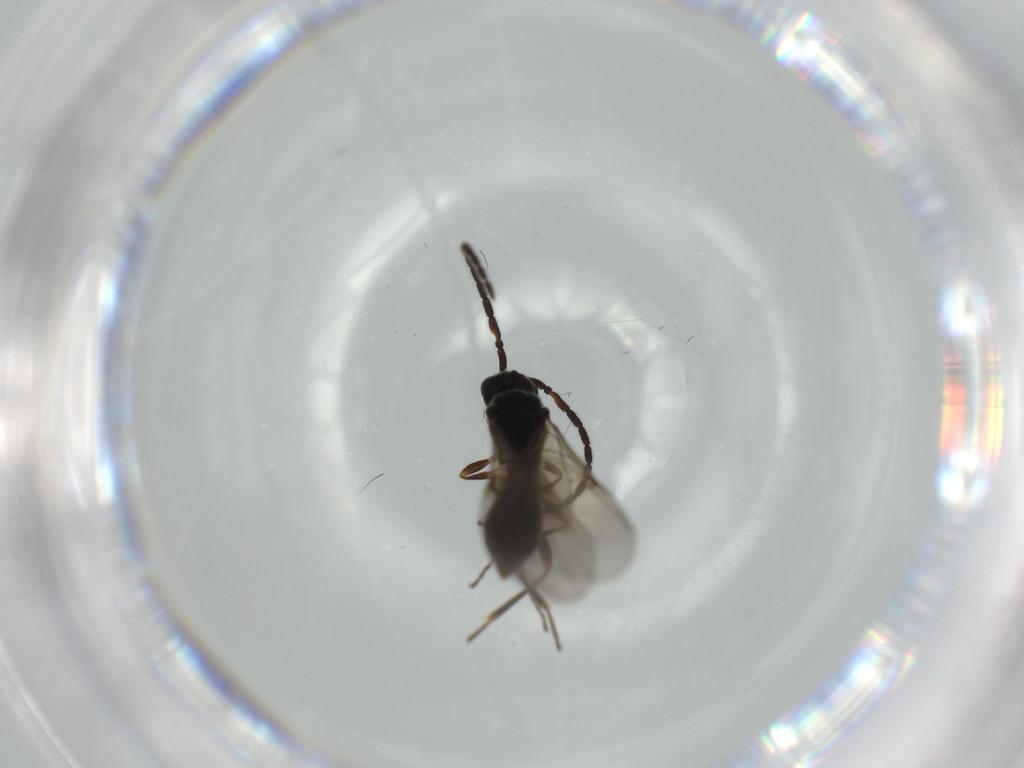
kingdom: Animalia
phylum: Arthropoda
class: Insecta
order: Hymenoptera
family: Ichneumonidae
